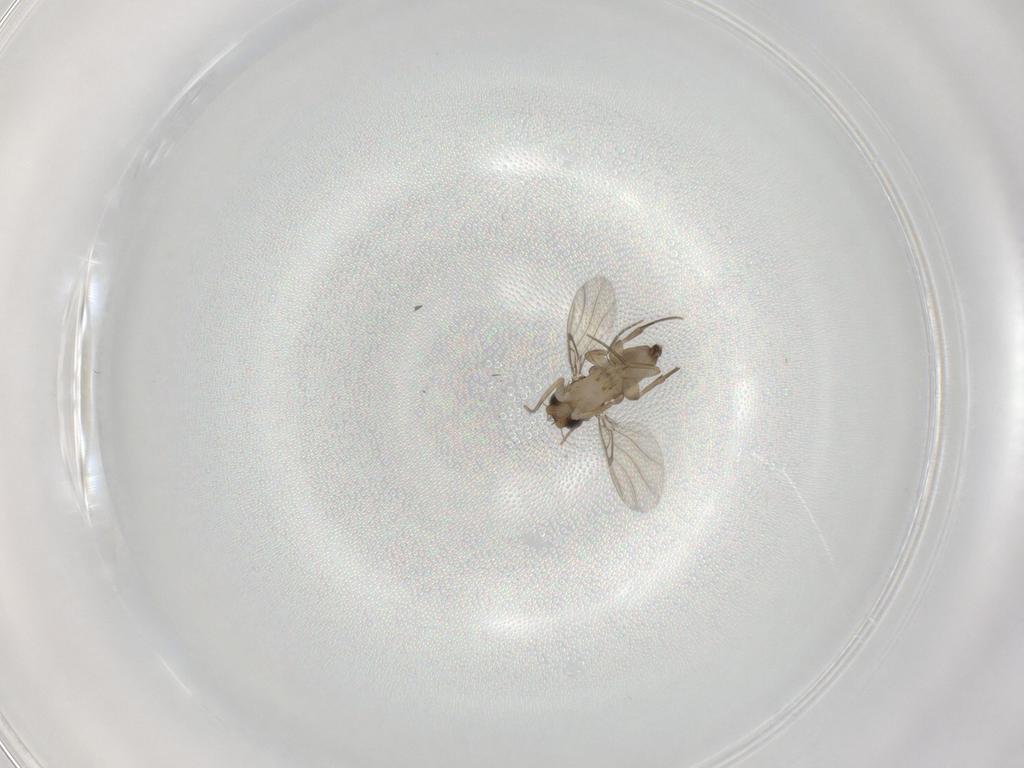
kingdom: Animalia
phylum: Arthropoda
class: Insecta
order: Diptera
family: Phoridae
